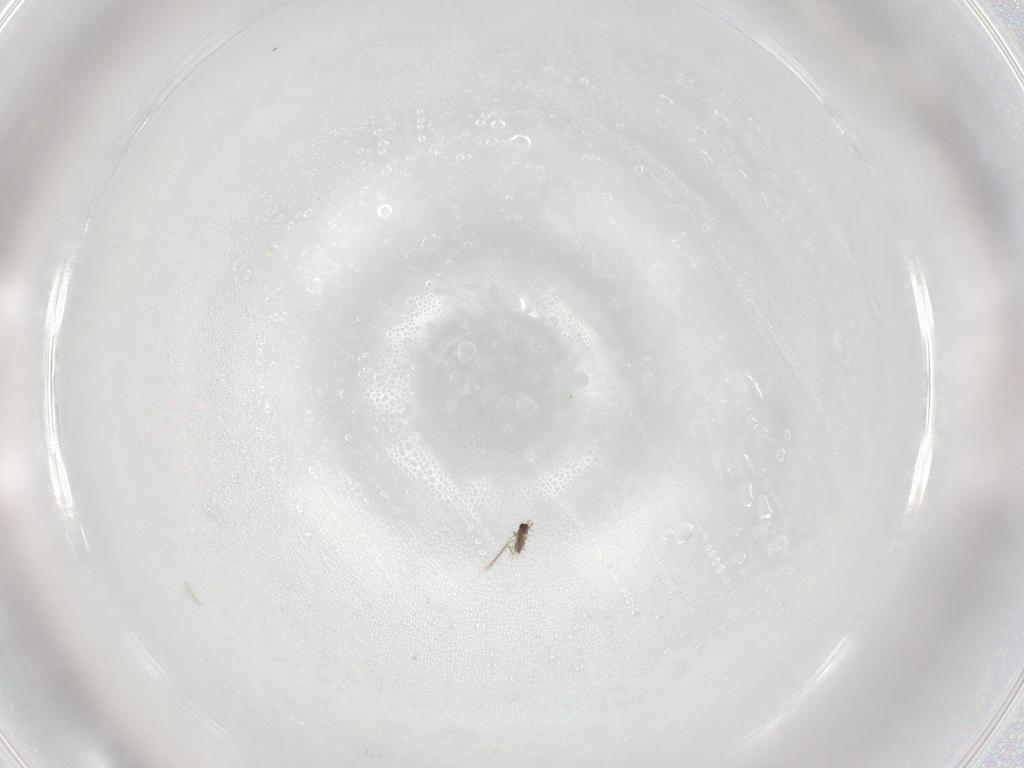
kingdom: Animalia
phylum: Arthropoda
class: Insecta
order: Hymenoptera
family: Mymaridae
